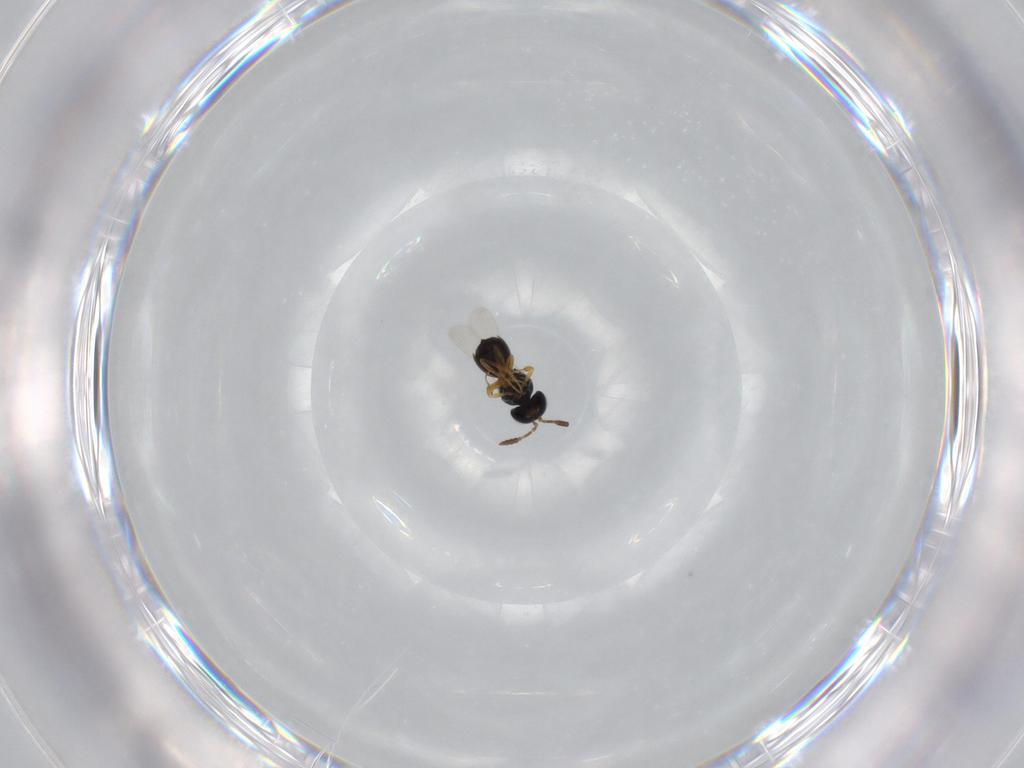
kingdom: Animalia
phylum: Arthropoda
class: Insecta
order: Hymenoptera
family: Scelionidae
